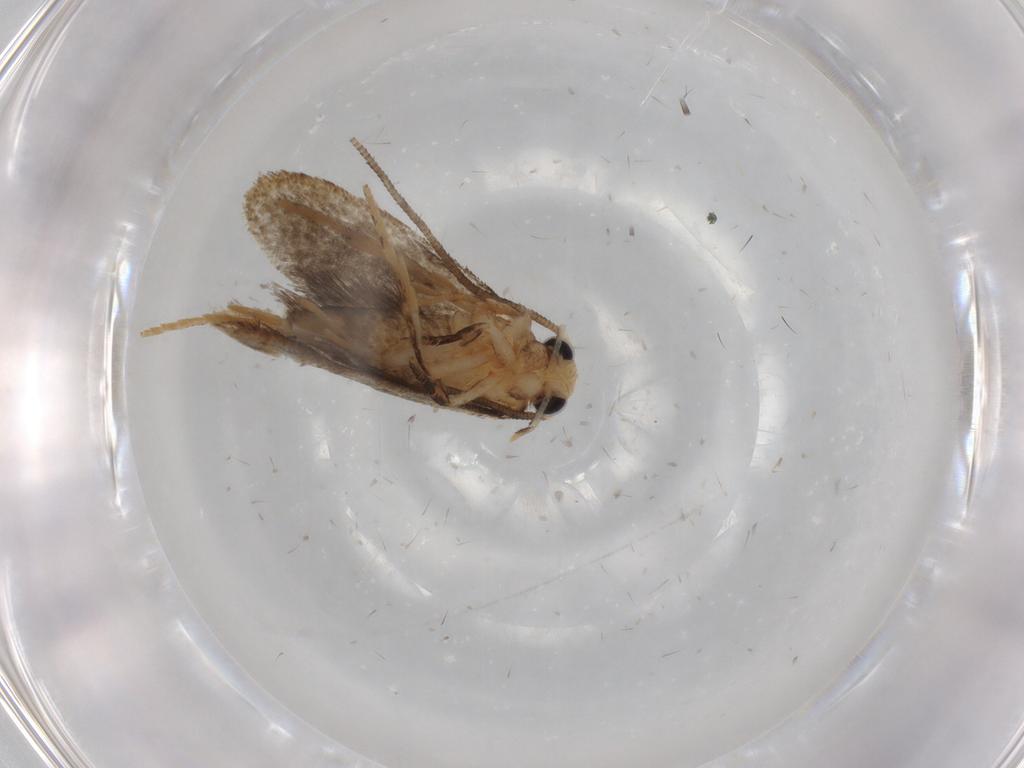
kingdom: Animalia
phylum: Arthropoda
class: Insecta
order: Lepidoptera
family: Tineidae
